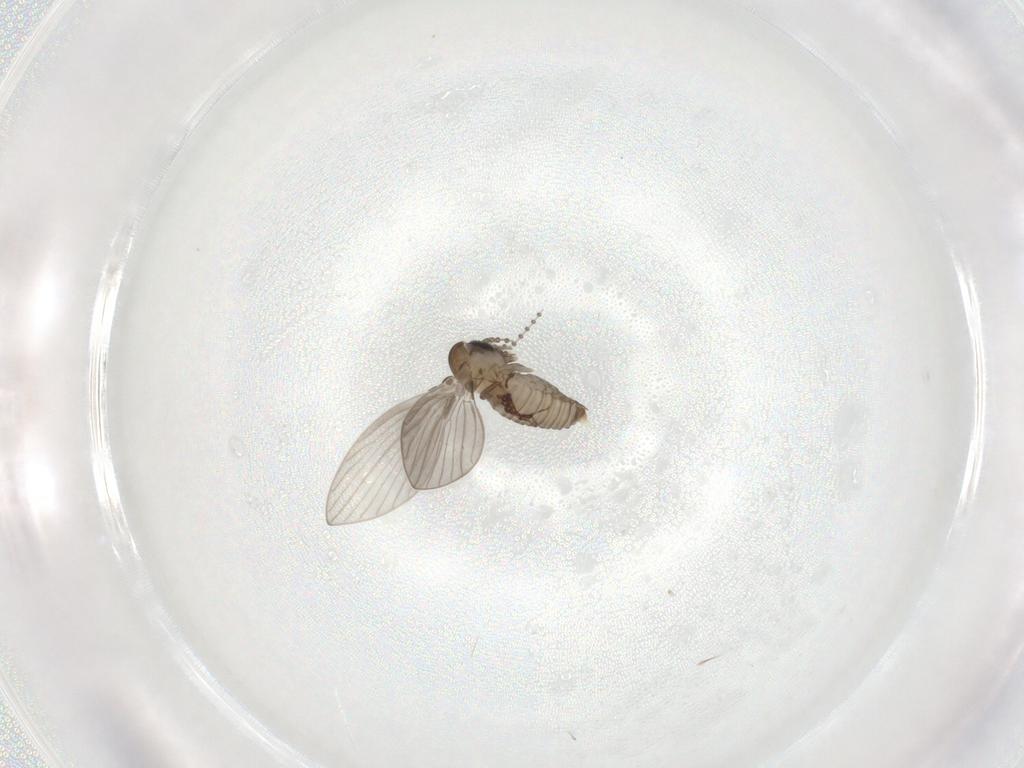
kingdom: Animalia
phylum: Arthropoda
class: Insecta
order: Diptera
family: Psychodidae
